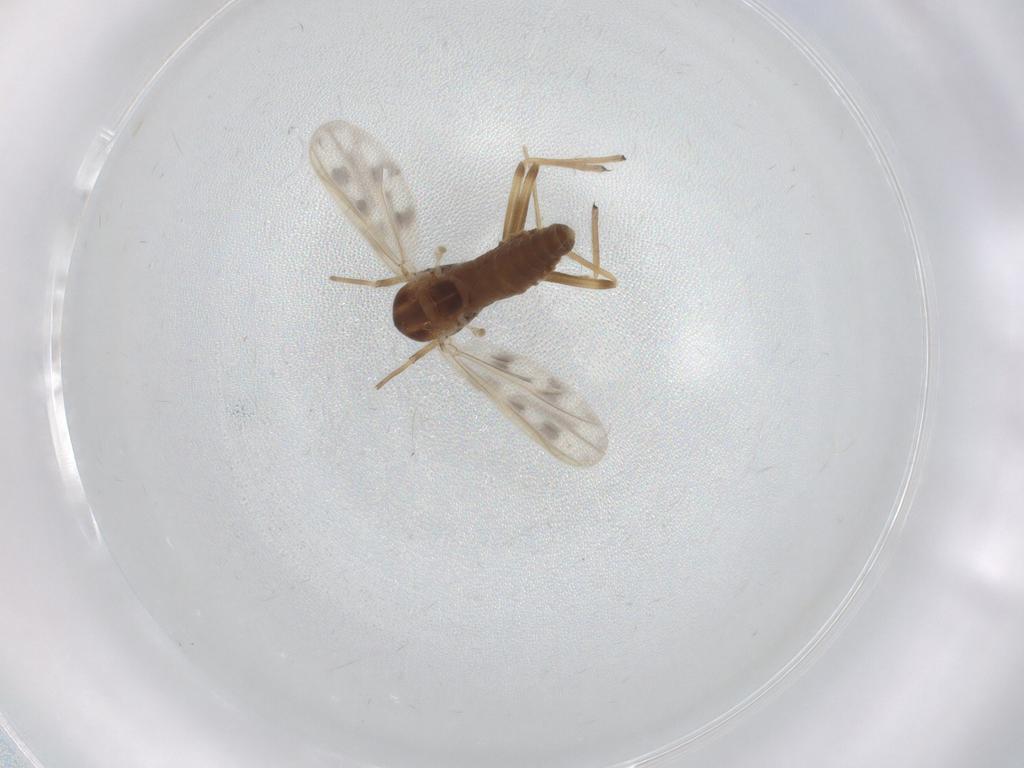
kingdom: Animalia
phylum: Arthropoda
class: Insecta
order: Diptera
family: Chironomidae
